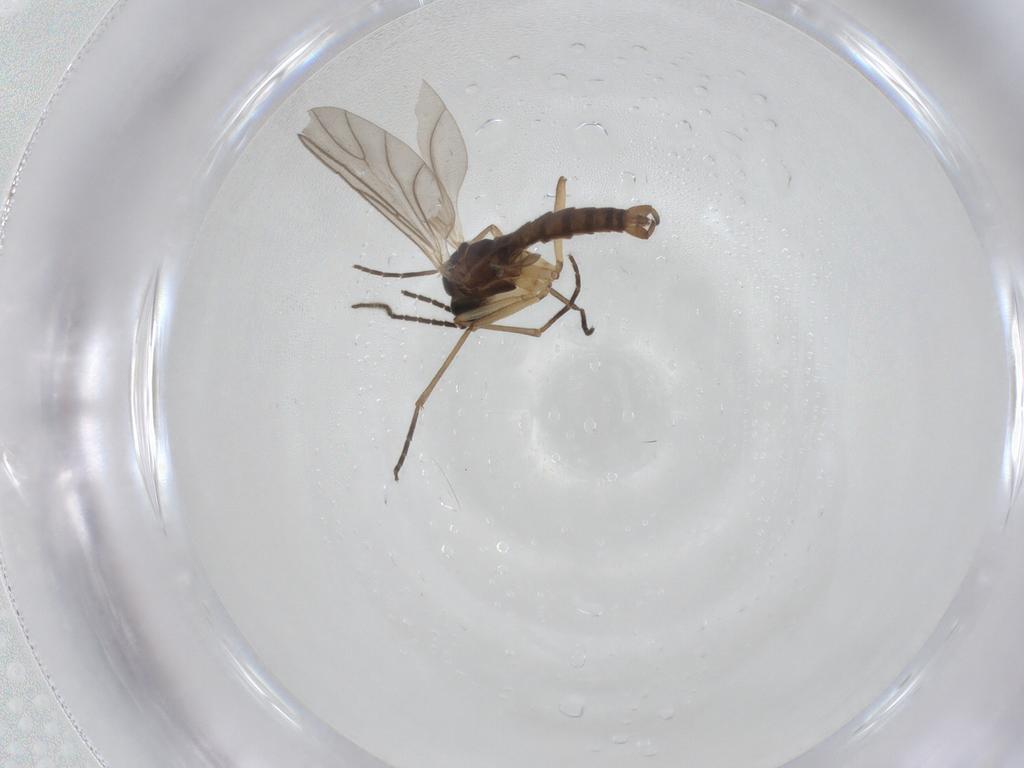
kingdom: Animalia
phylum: Arthropoda
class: Insecta
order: Diptera
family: Sciaridae
